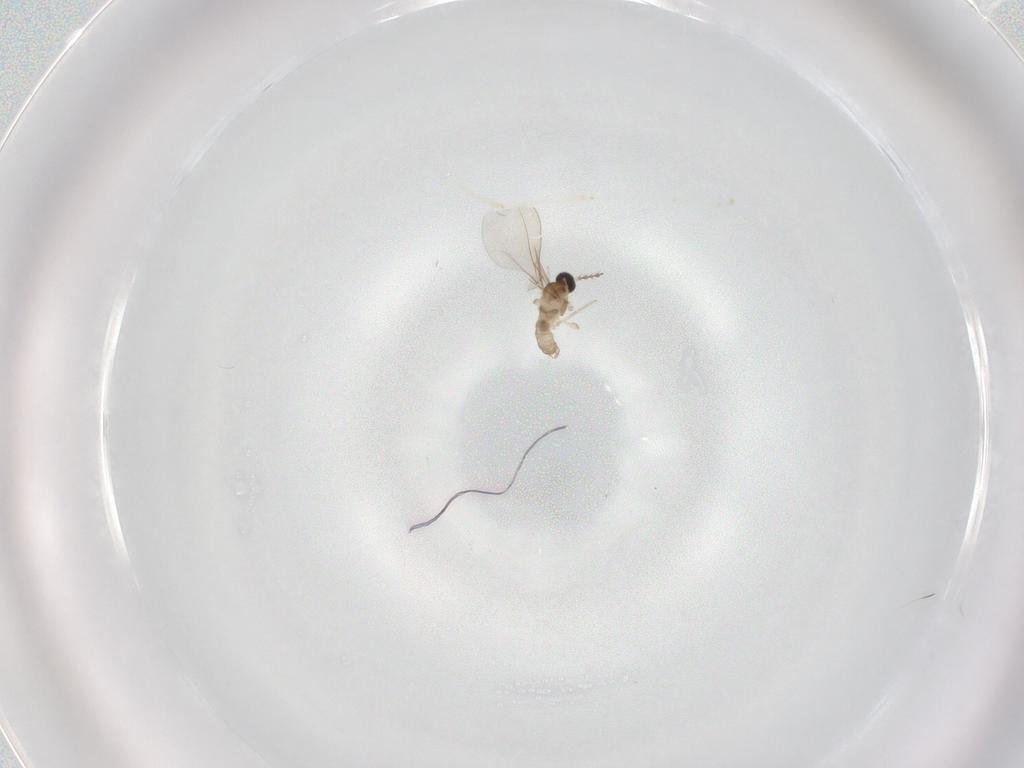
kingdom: Animalia
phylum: Arthropoda
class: Insecta
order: Diptera
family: Cecidomyiidae
